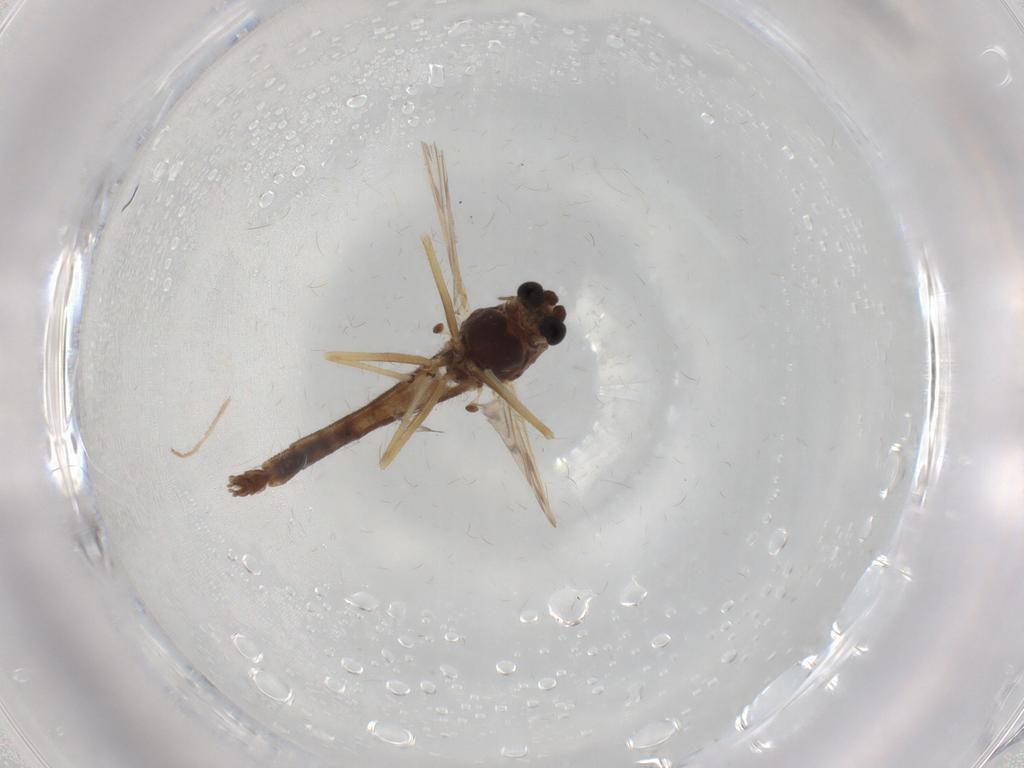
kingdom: Animalia
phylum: Arthropoda
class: Insecta
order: Diptera
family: Chironomidae
